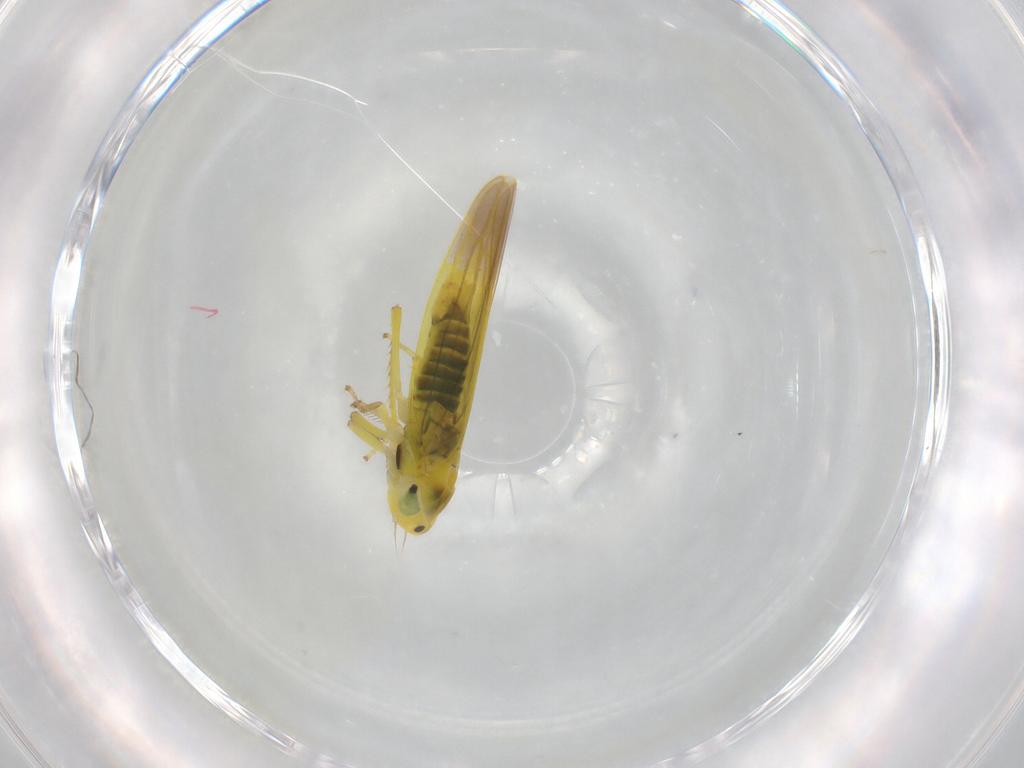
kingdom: Animalia
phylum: Arthropoda
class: Insecta
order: Hemiptera
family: Cicadellidae
